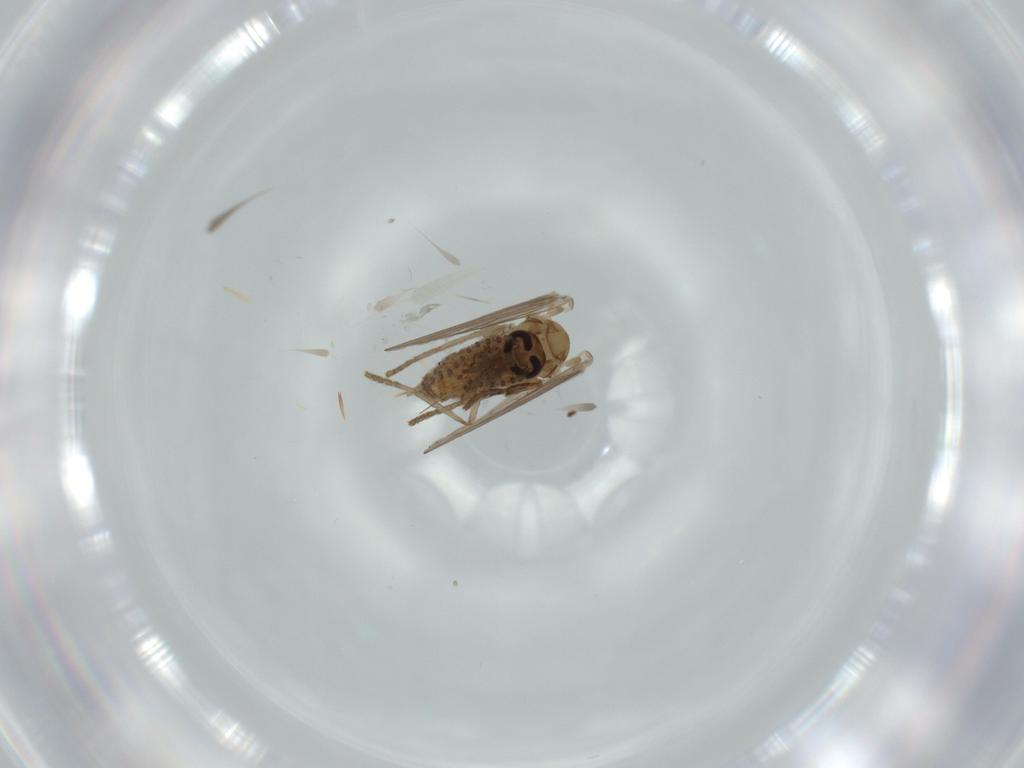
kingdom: Animalia
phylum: Arthropoda
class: Insecta
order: Diptera
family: Psychodidae
